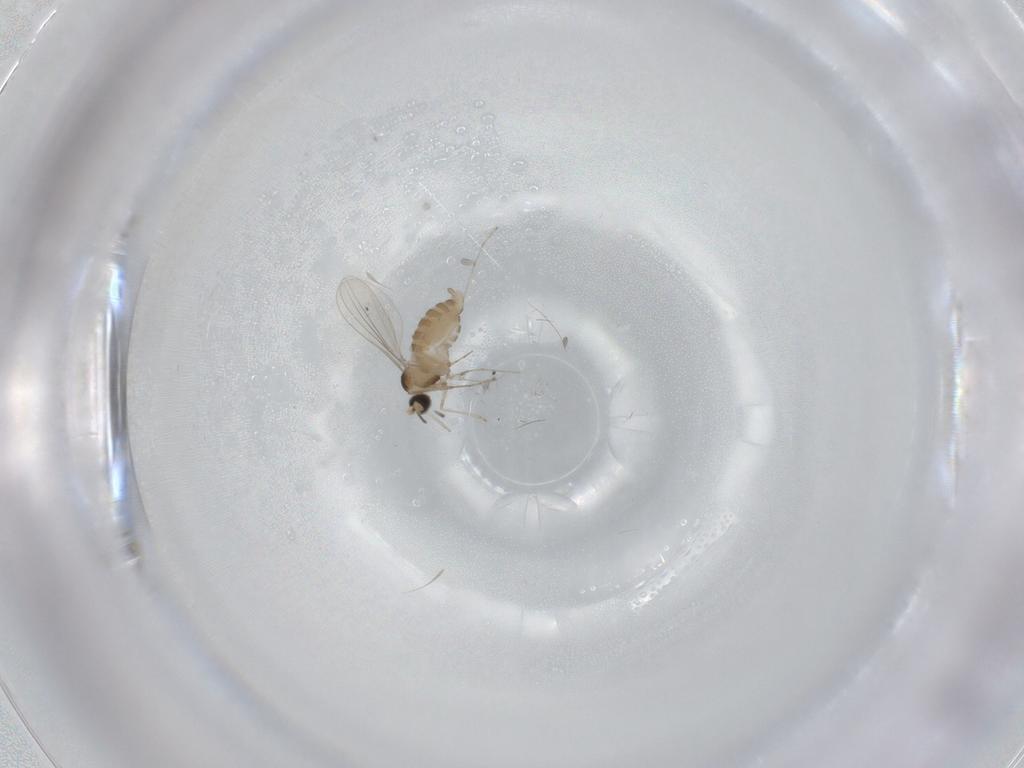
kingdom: Animalia
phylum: Arthropoda
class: Insecta
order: Diptera
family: Cecidomyiidae
